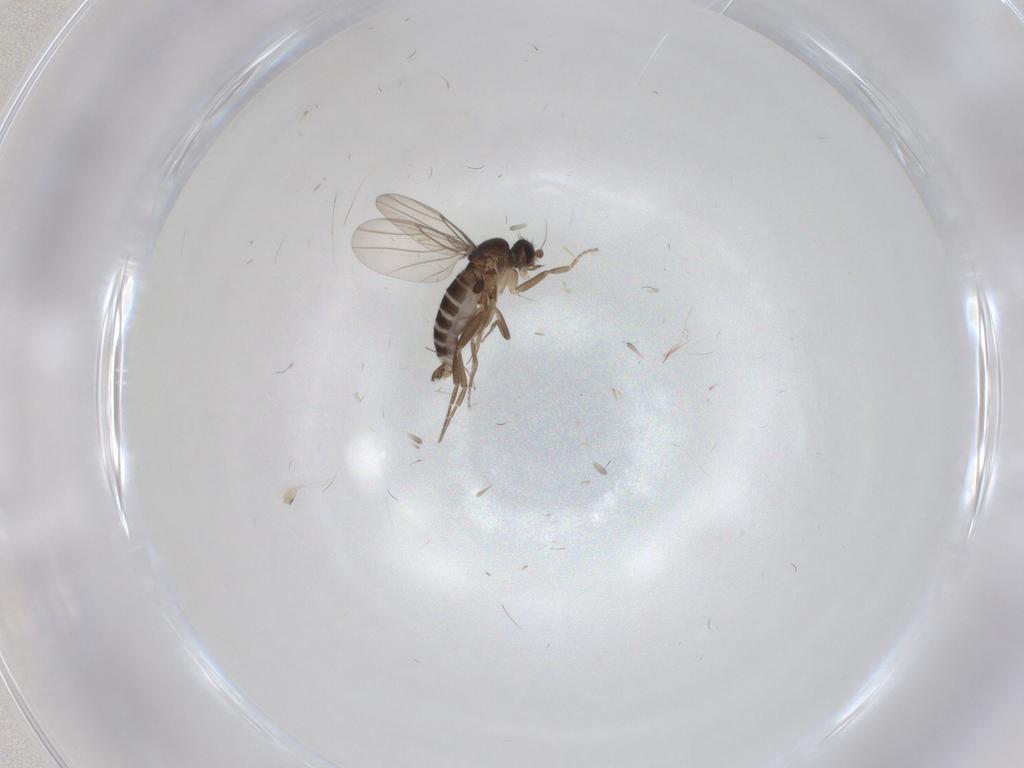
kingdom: Animalia
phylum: Arthropoda
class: Insecta
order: Diptera
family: Phoridae
